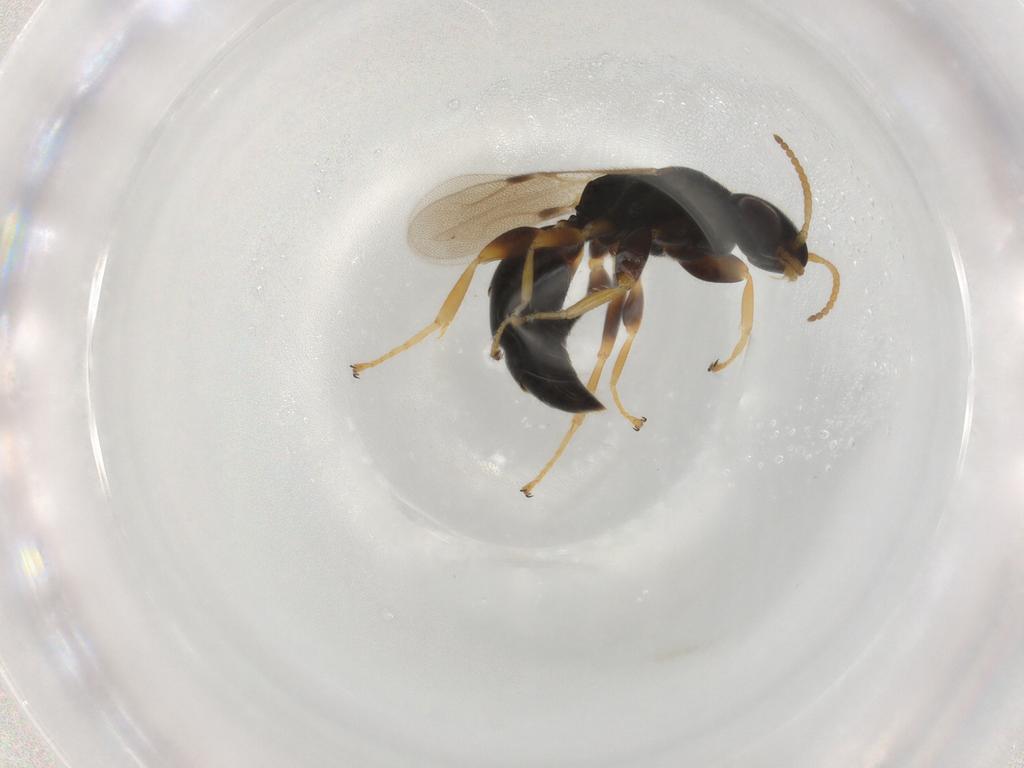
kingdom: Animalia
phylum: Arthropoda
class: Insecta
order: Hymenoptera
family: Bethylidae
